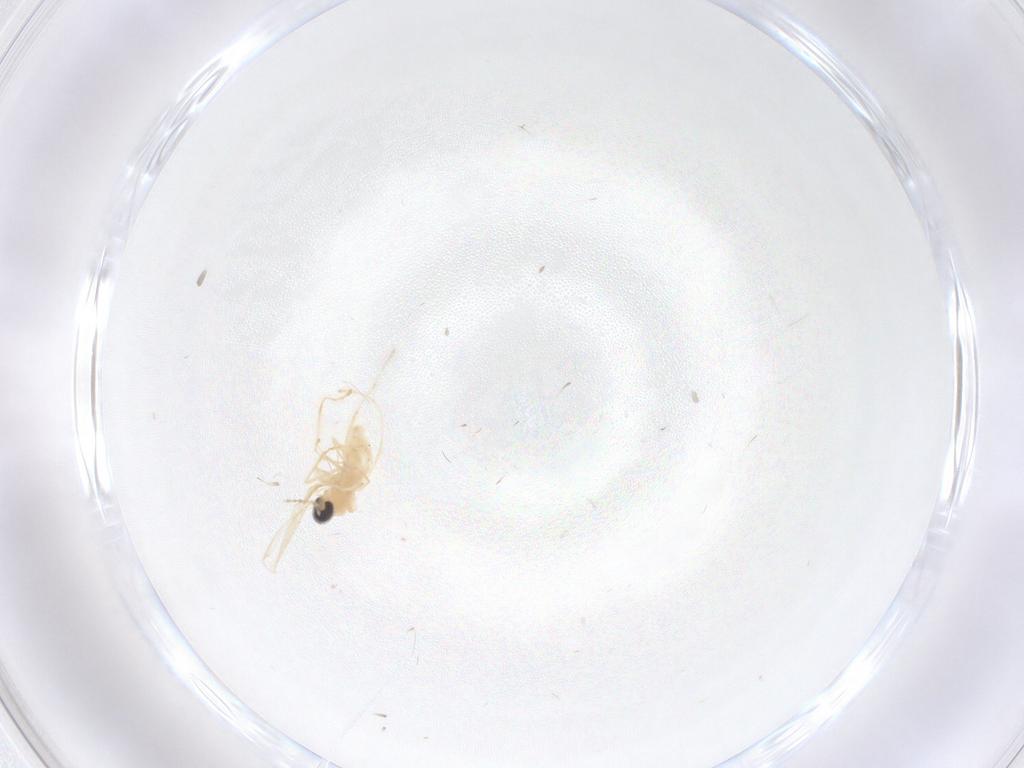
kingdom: Animalia
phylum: Arthropoda
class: Insecta
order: Diptera
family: Cecidomyiidae
